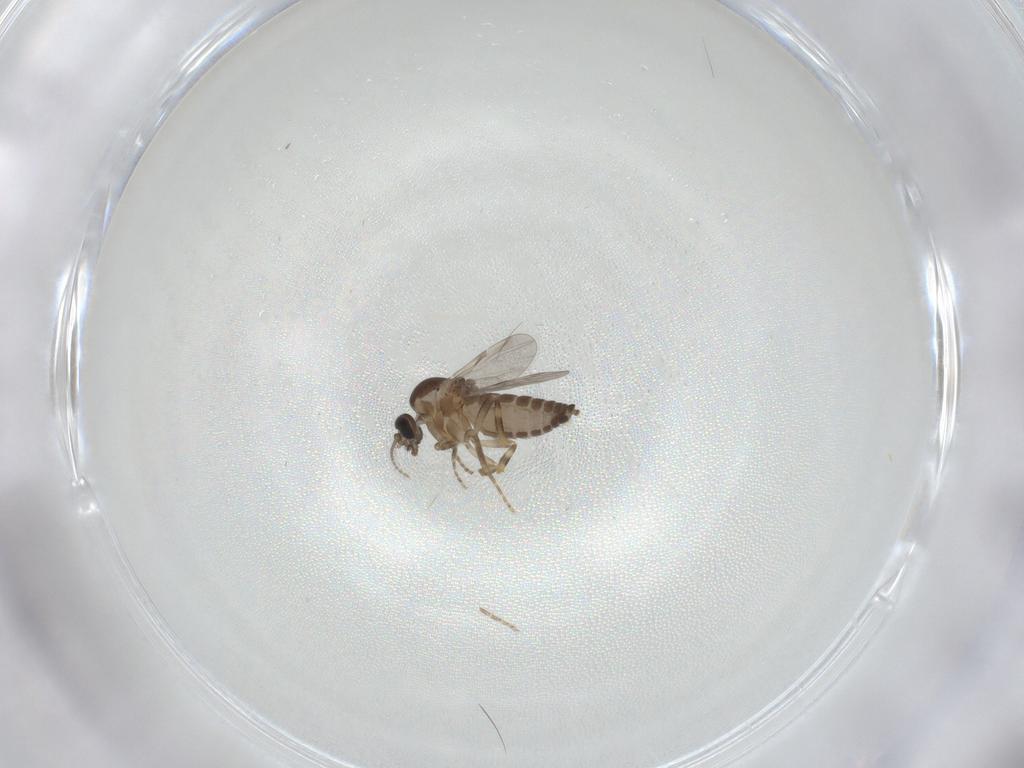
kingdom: Animalia
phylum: Arthropoda
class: Insecta
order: Diptera
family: Ceratopogonidae
